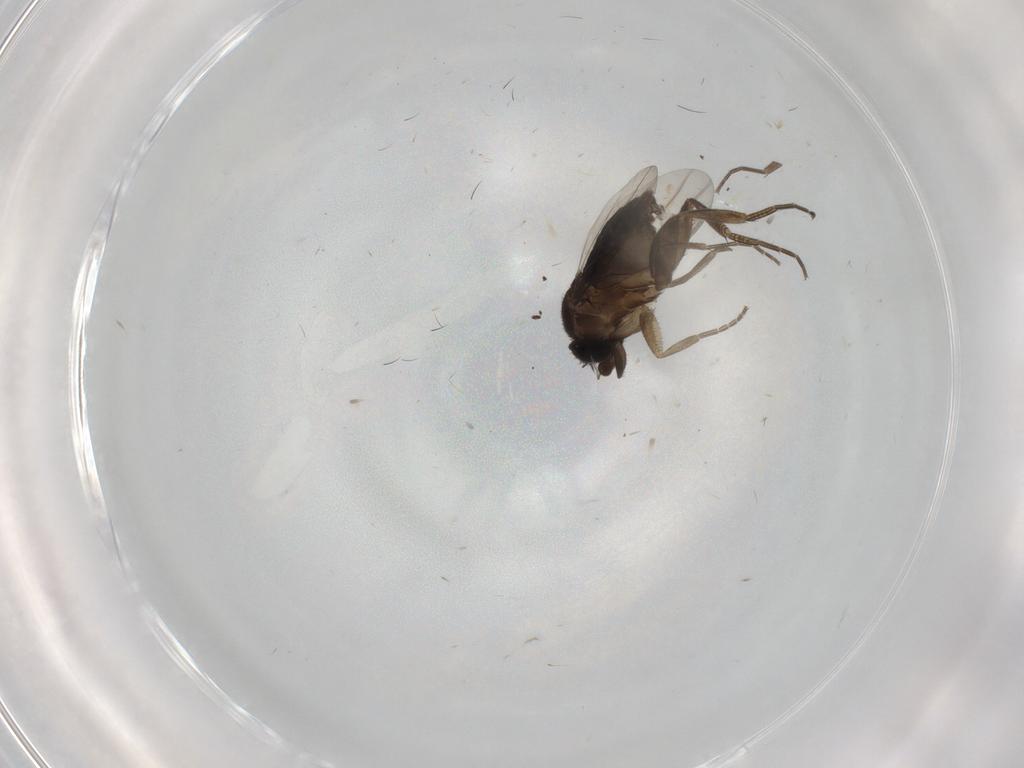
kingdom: Animalia
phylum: Arthropoda
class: Insecta
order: Diptera
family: Phoridae
